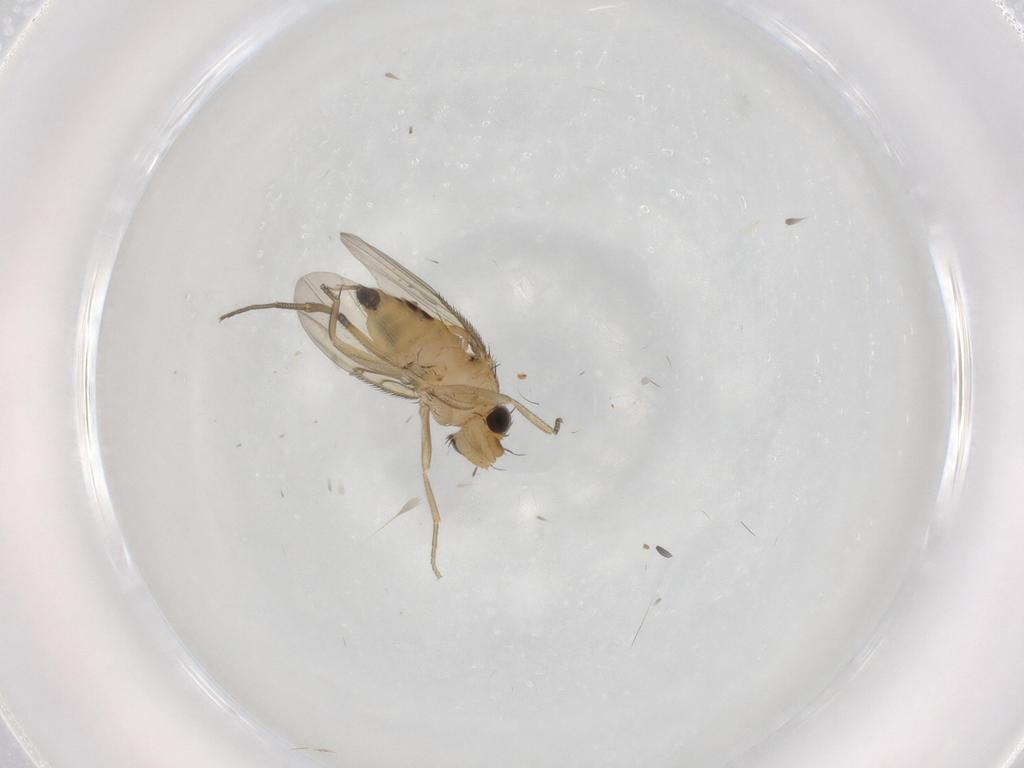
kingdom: Animalia
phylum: Arthropoda
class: Insecta
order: Diptera
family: Phoridae
